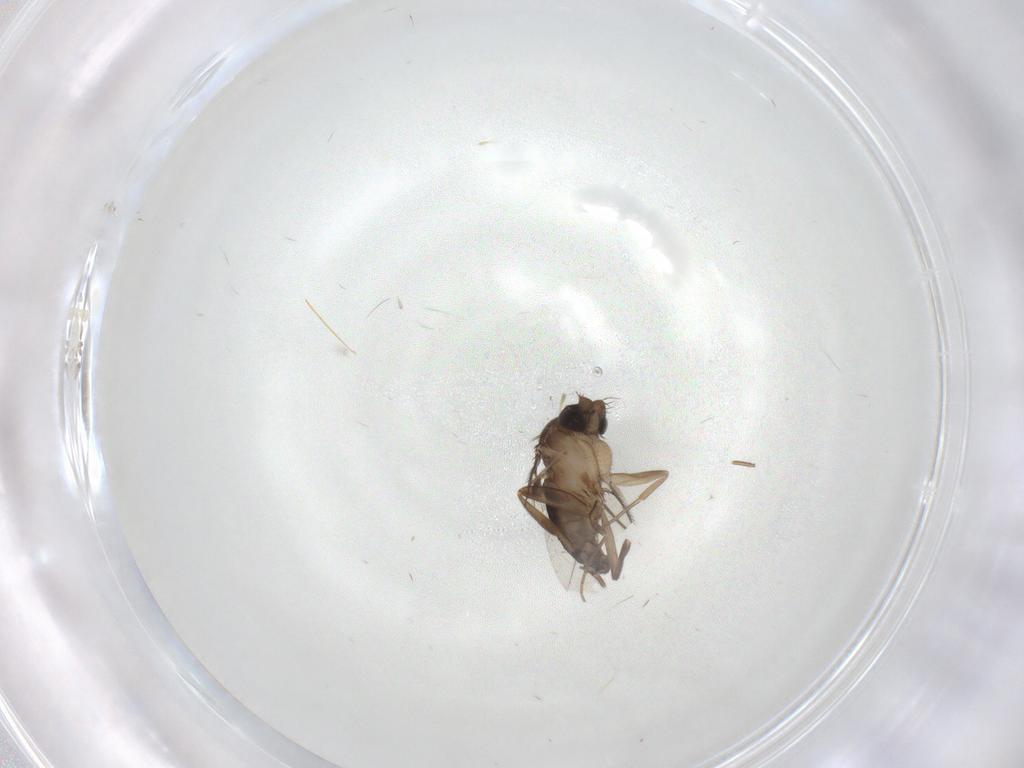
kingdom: Animalia
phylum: Arthropoda
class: Insecta
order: Diptera
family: Phoridae
